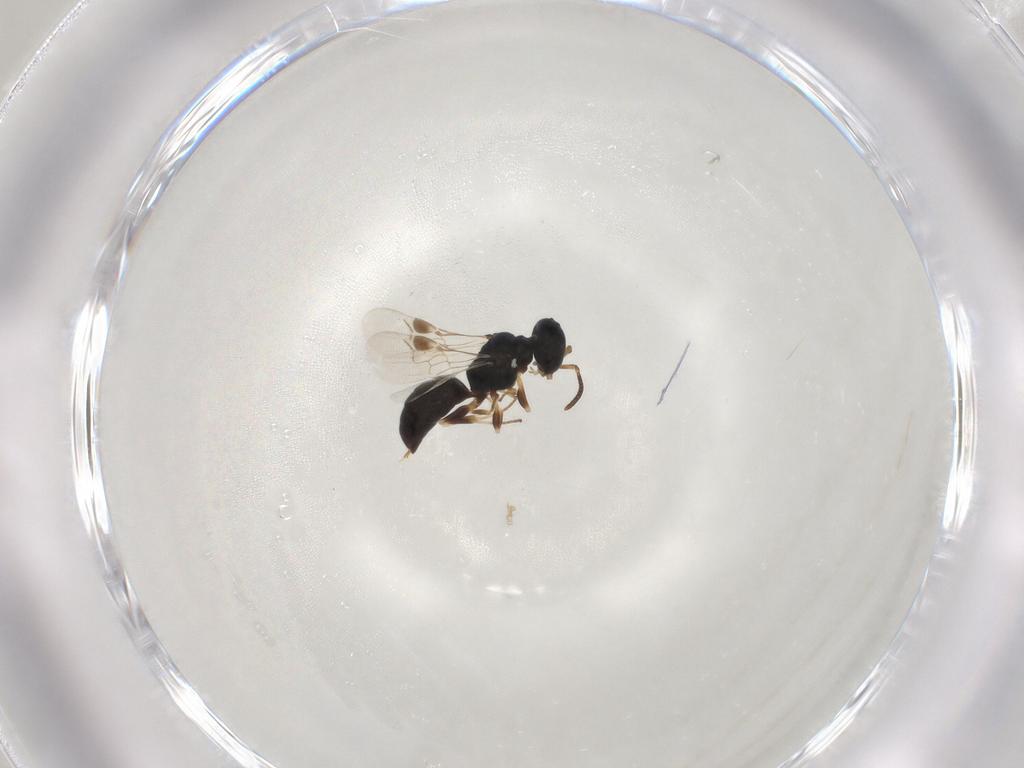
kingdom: Animalia
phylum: Arthropoda
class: Insecta
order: Hymenoptera
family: Pemphredonidae
